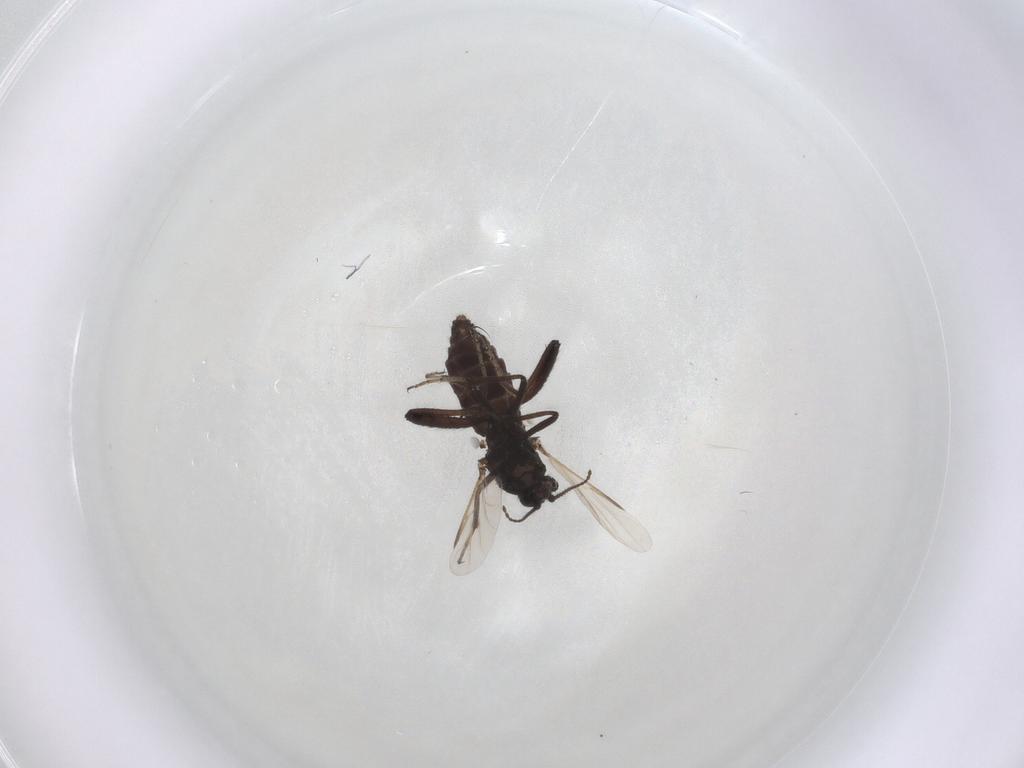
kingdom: Animalia
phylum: Arthropoda
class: Insecta
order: Diptera
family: Ceratopogonidae
